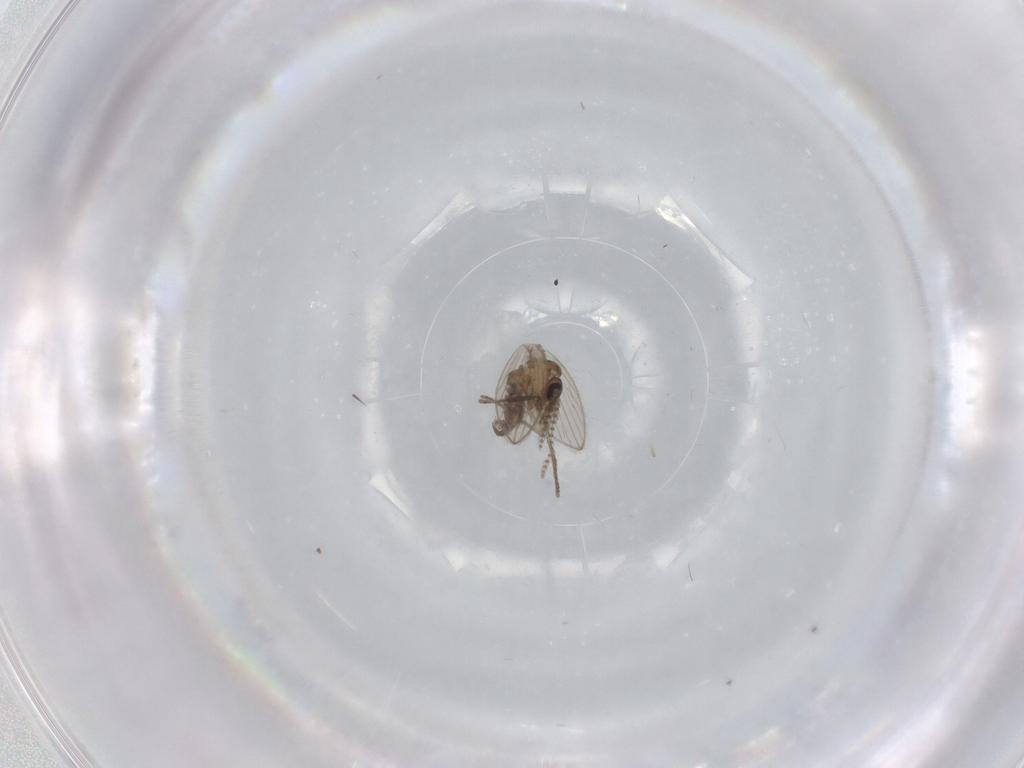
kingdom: Animalia
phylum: Arthropoda
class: Insecta
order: Diptera
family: Psychodidae
